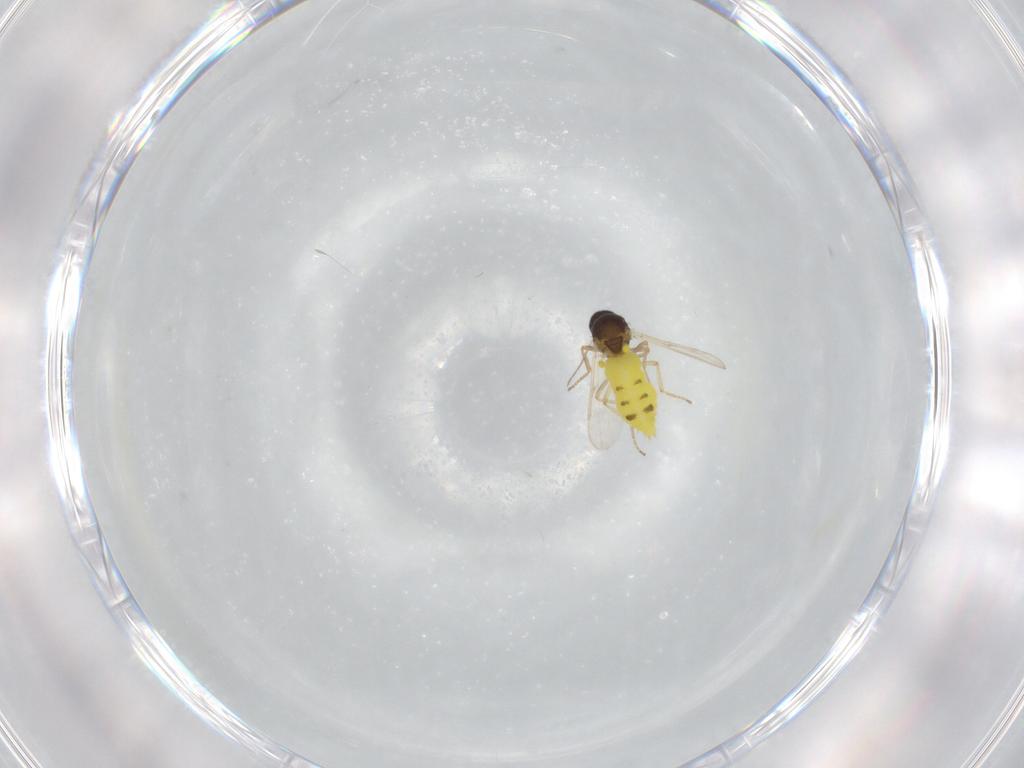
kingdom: Animalia
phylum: Arthropoda
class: Insecta
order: Diptera
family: Ceratopogonidae
